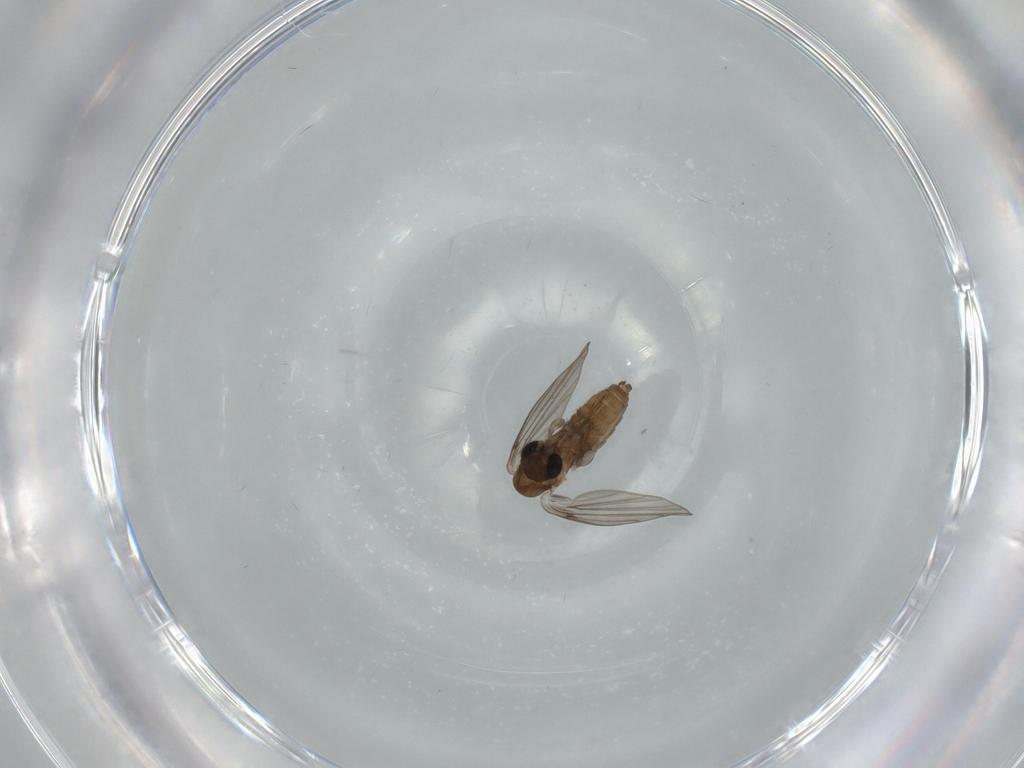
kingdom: Animalia
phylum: Arthropoda
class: Insecta
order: Diptera
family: Psychodidae
